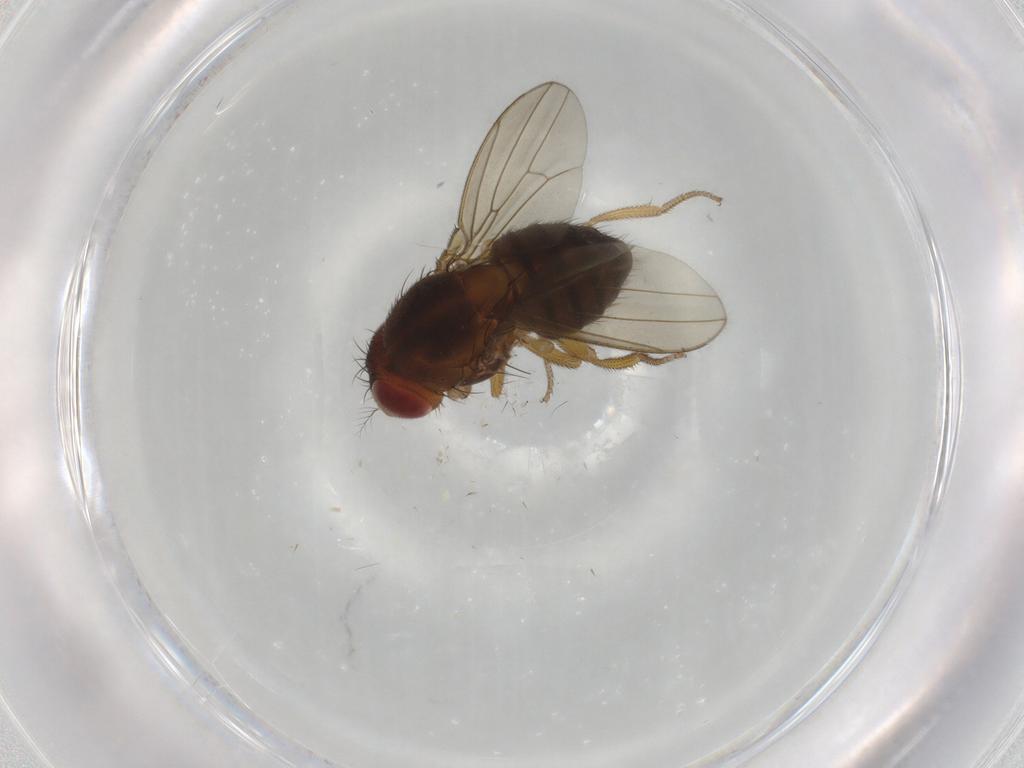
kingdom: Animalia
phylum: Arthropoda
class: Insecta
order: Diptera
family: Drosophilidae
